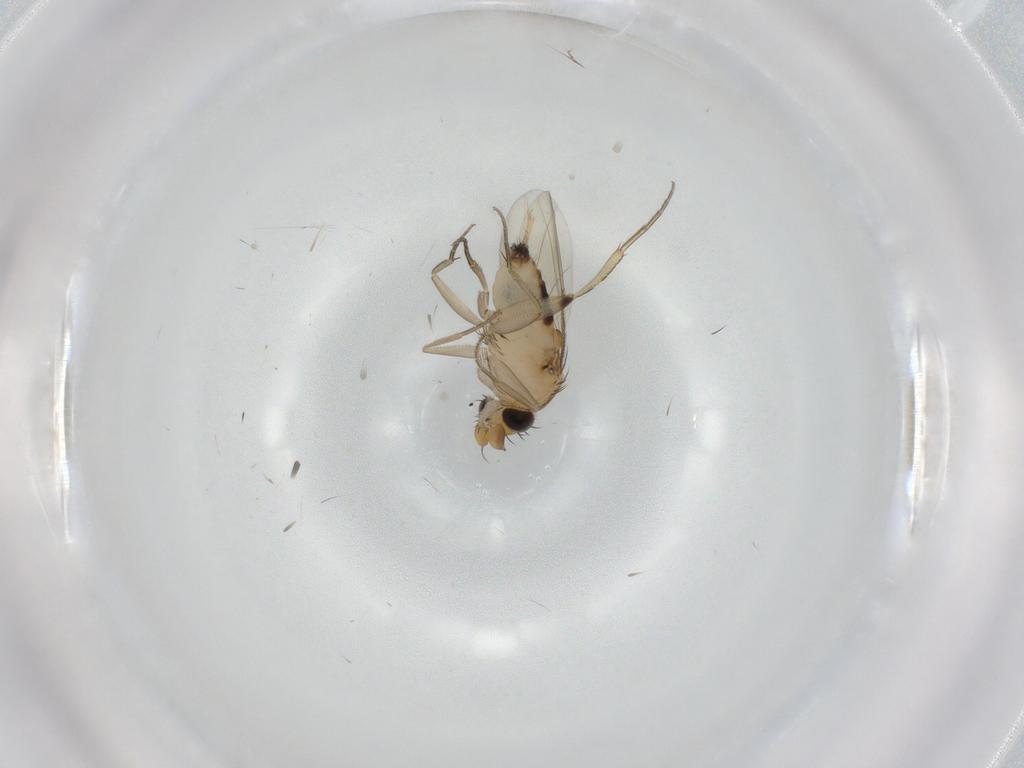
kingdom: Animalia
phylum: Arthropoda
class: Insecta
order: Diptera
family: Phoridae
